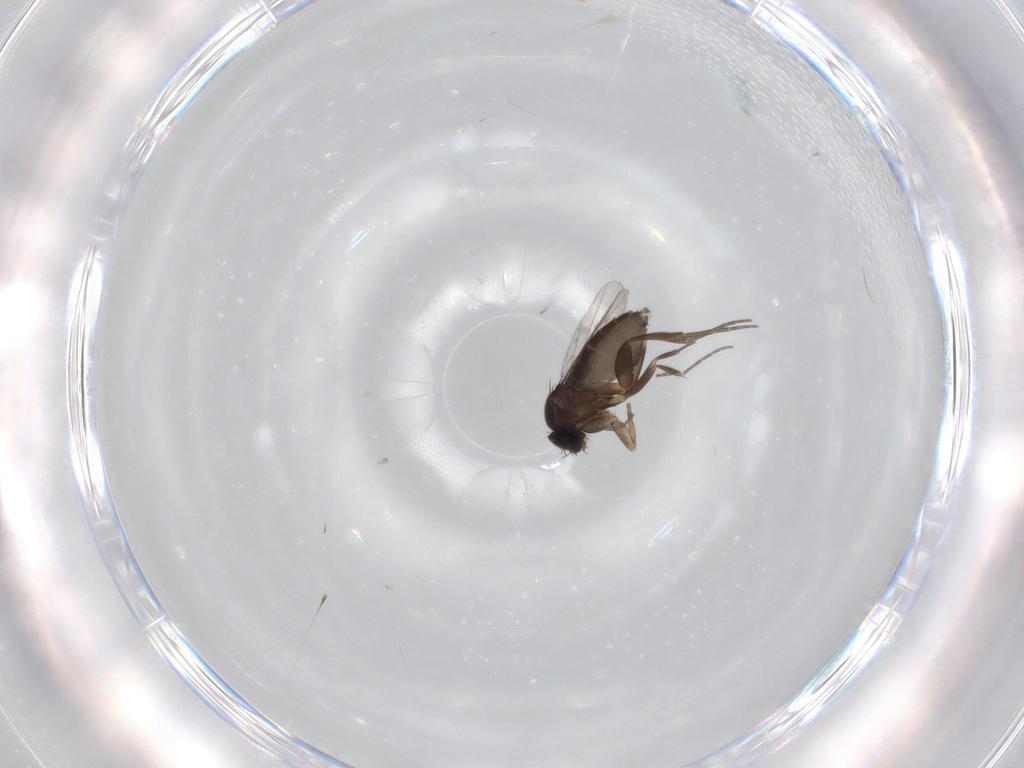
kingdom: Animalia
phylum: Arthropoda
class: Insecta
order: Diptera
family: Phoridae
